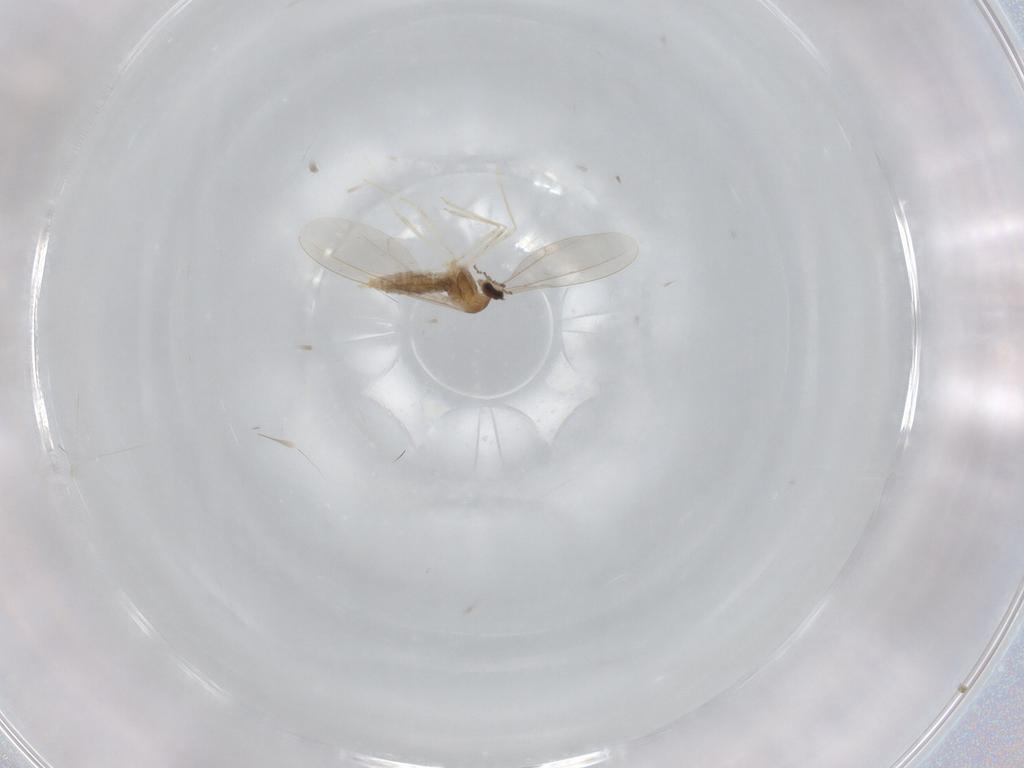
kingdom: Animalia
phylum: Arthropoda
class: Insecta
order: Diptera
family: Cecidomyiidae
